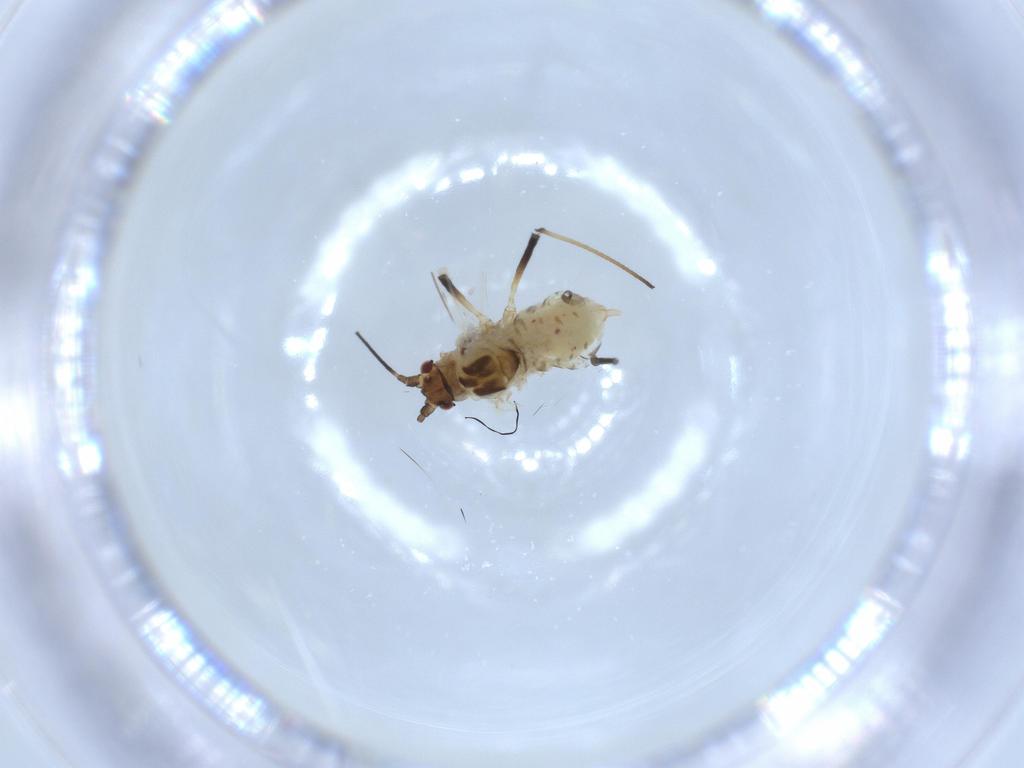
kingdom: Animalia
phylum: Arthropoda
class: Insecta
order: Hemiptera
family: Aphididae
